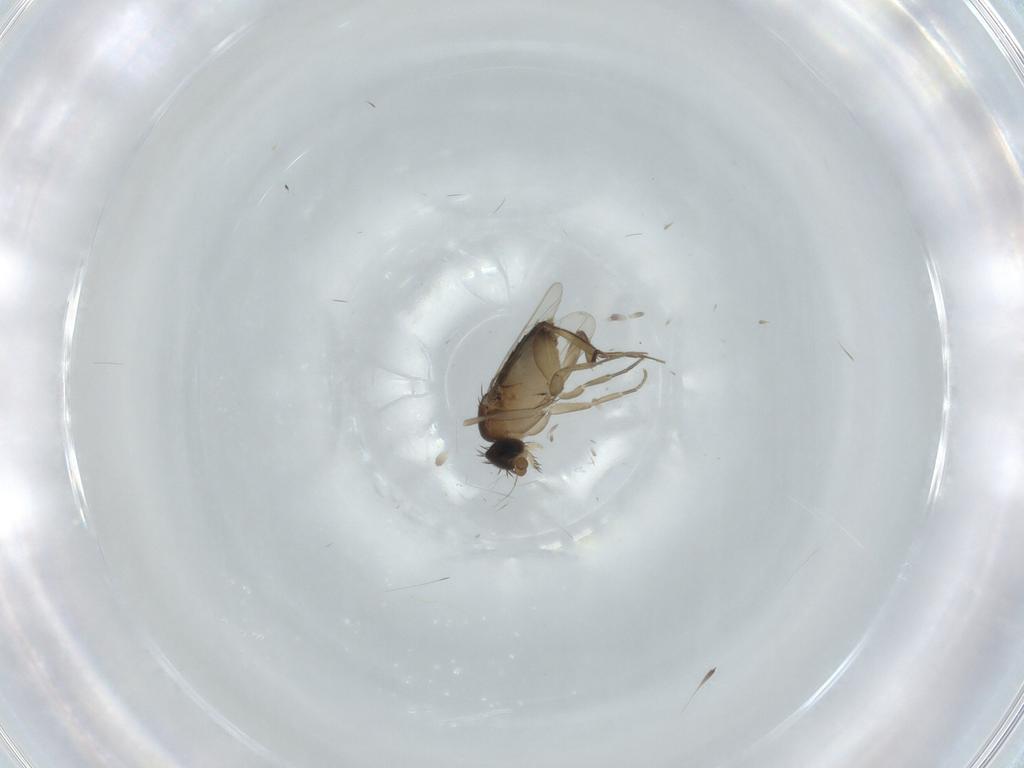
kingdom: Animalia
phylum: Arthropoda
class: Insecta
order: Diptera
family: Phoridae
